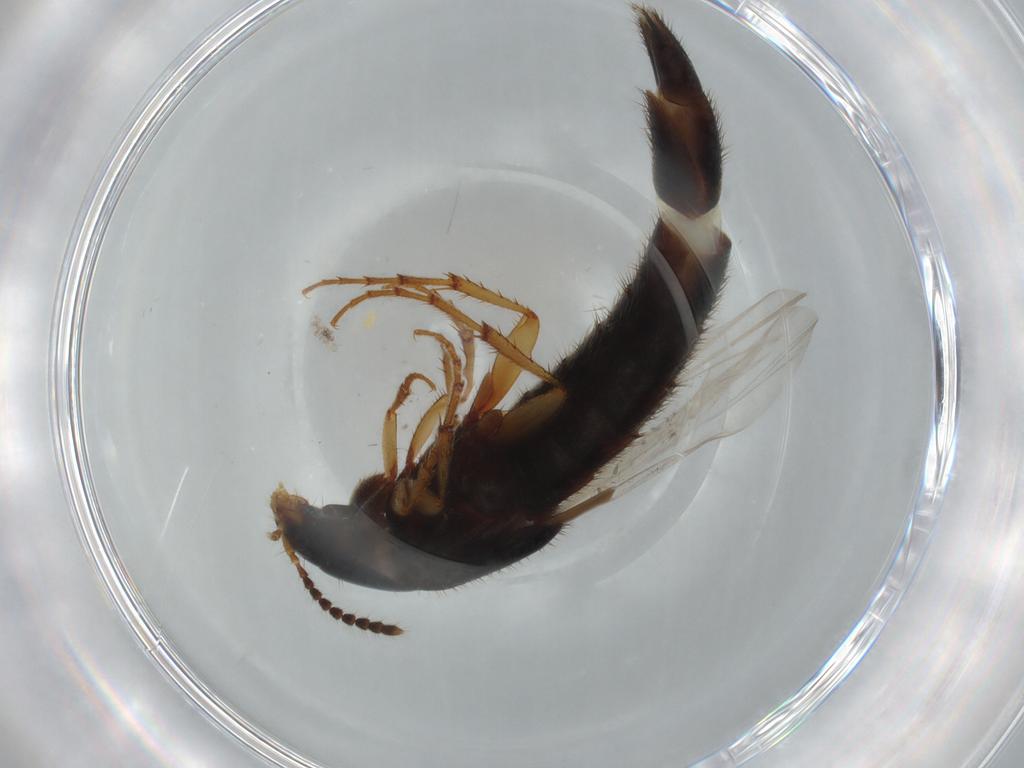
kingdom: Animalia
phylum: Arthropoda
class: Insecta
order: Coleoptera
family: Staphylinidae
